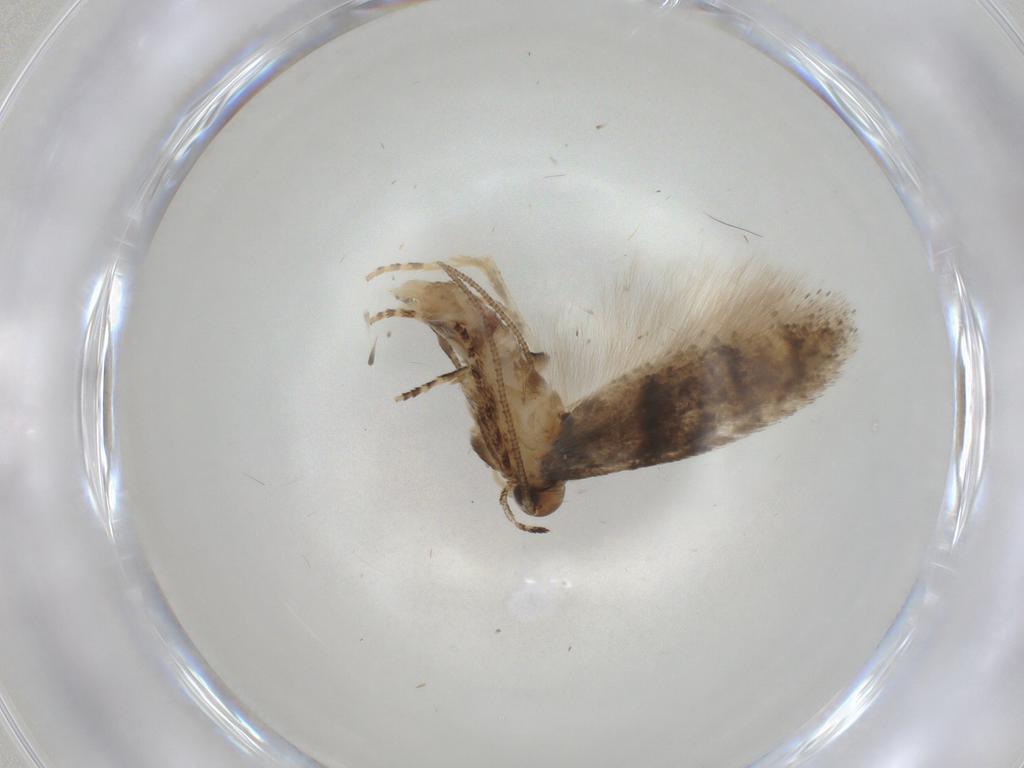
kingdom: Animalia
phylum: Arthropoda
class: Insecta
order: Lepidoptera
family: Gelechiidae
